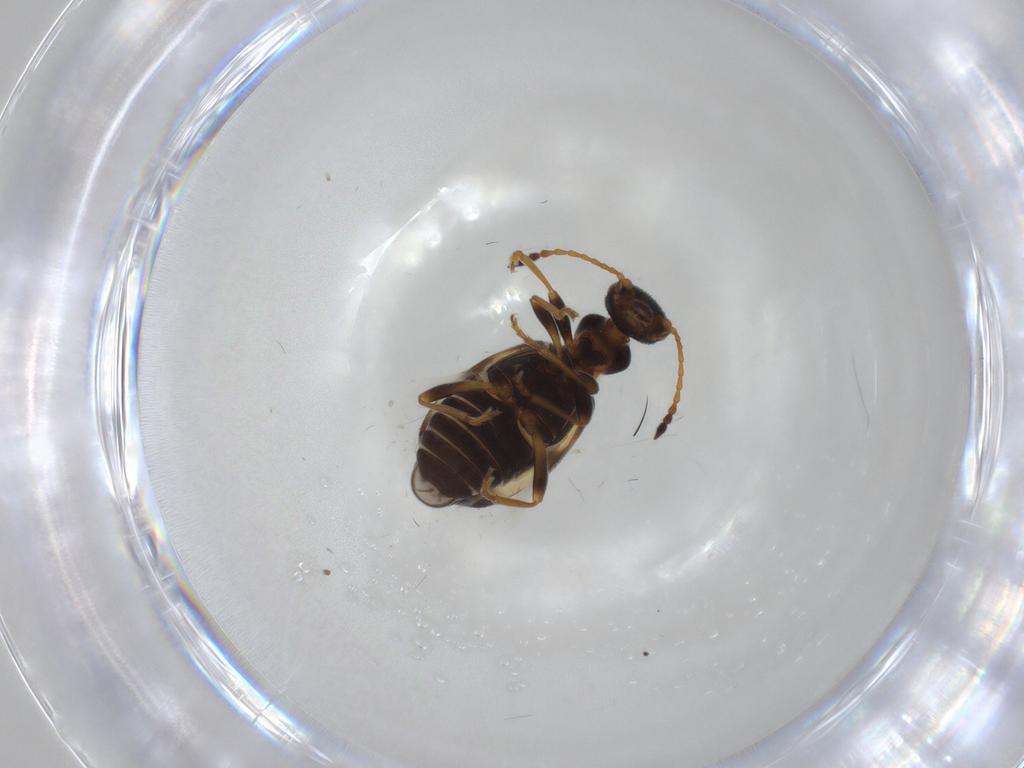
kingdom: Animalia
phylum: Arthropoda
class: Insecta
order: Coleoptera
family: Anthicidae
